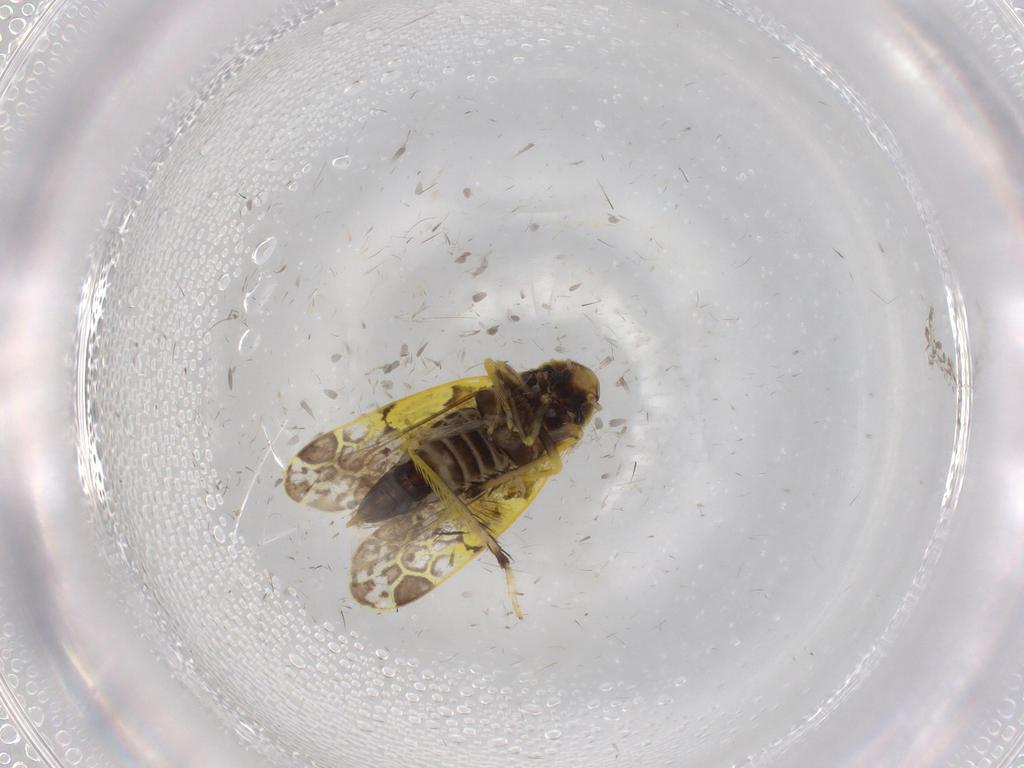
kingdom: Animalia
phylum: Arthropoda
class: Insecta
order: Hemiptera
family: Cicadellidae
